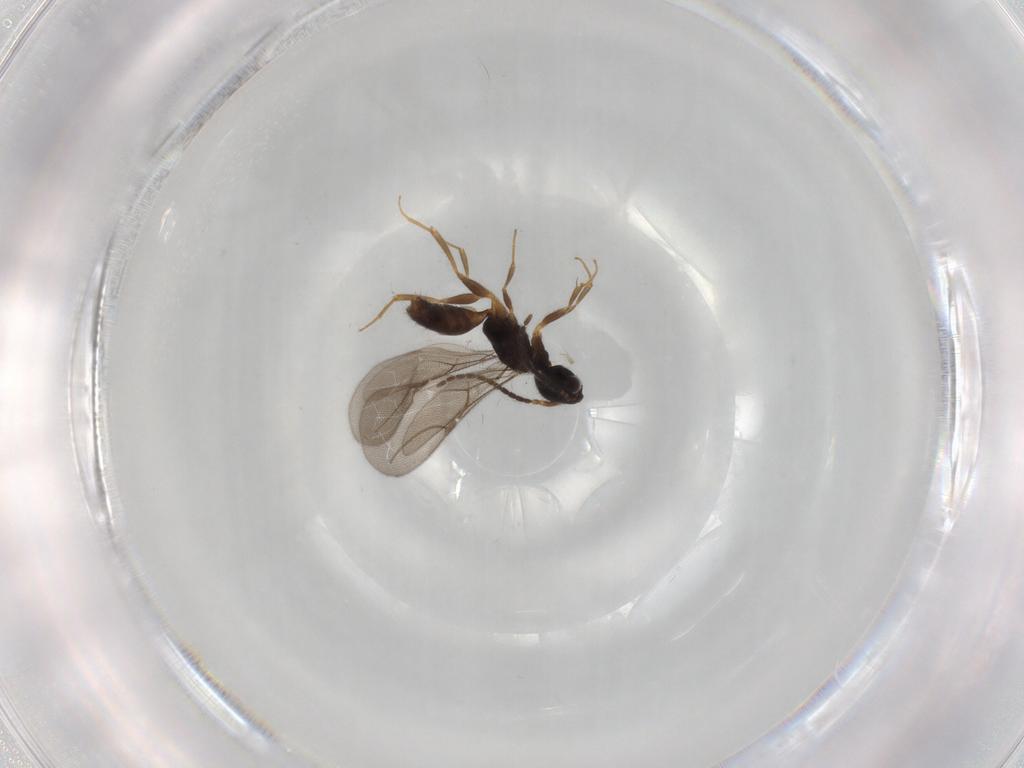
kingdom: Animalia
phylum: Arthropoda
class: Insecta
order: Hymenoptera
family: Bethylidae
